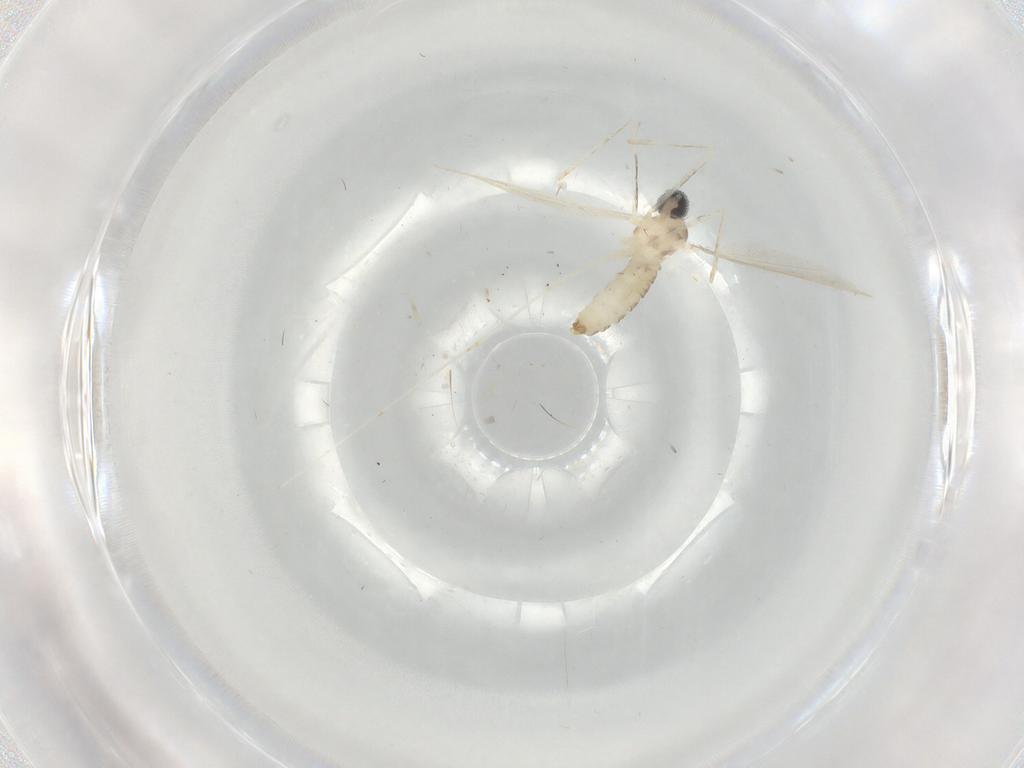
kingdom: Animalia
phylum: Arthropoda
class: Insecta
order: Diptera
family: Cecidomyiidae
